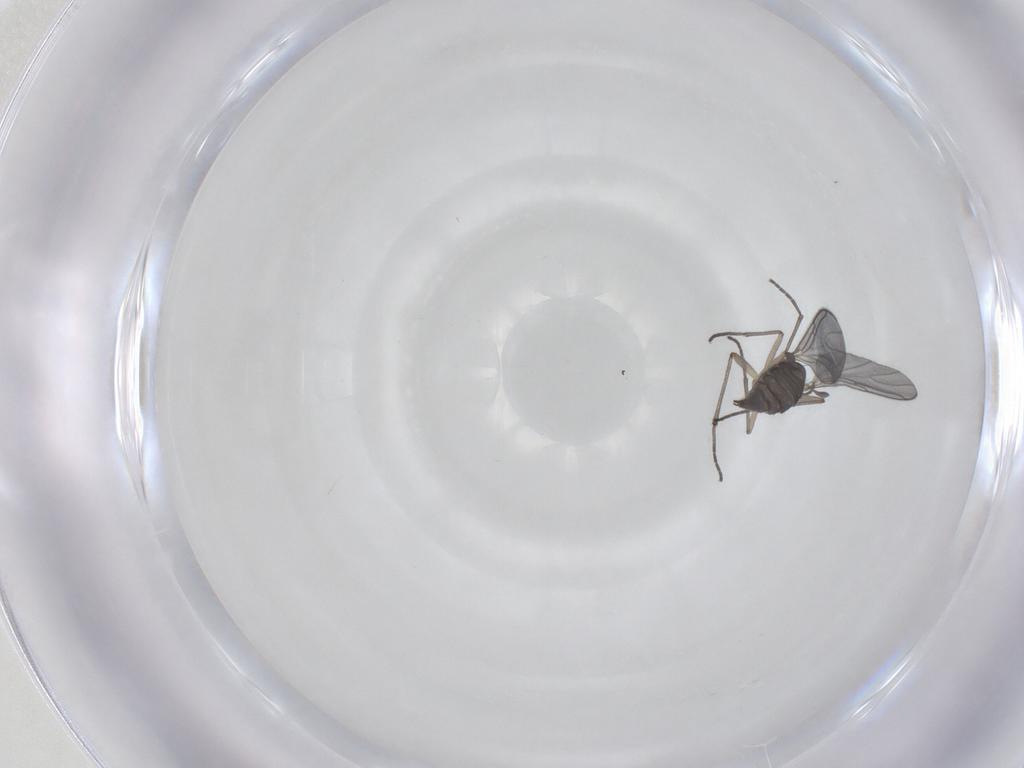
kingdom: Animalia
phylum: Arthropoda
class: Insecta
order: Diptera
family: Sciaridae
